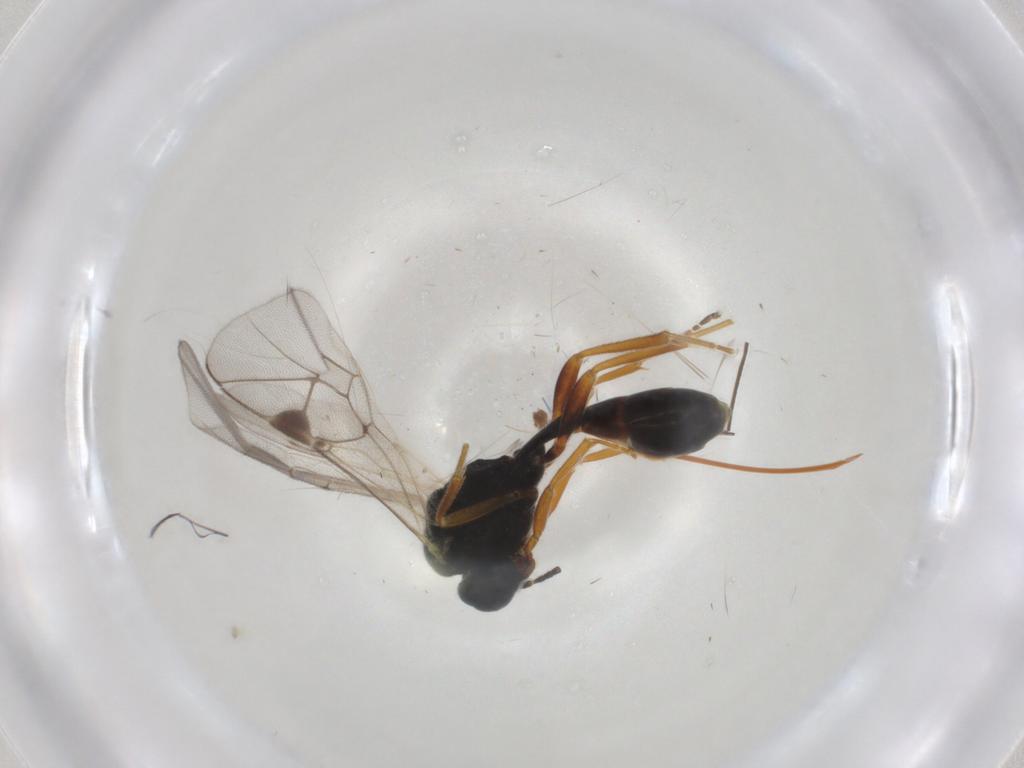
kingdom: Animalia
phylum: Arthropoda
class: Insecta
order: Hymenoptera
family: Ichneumonidae
